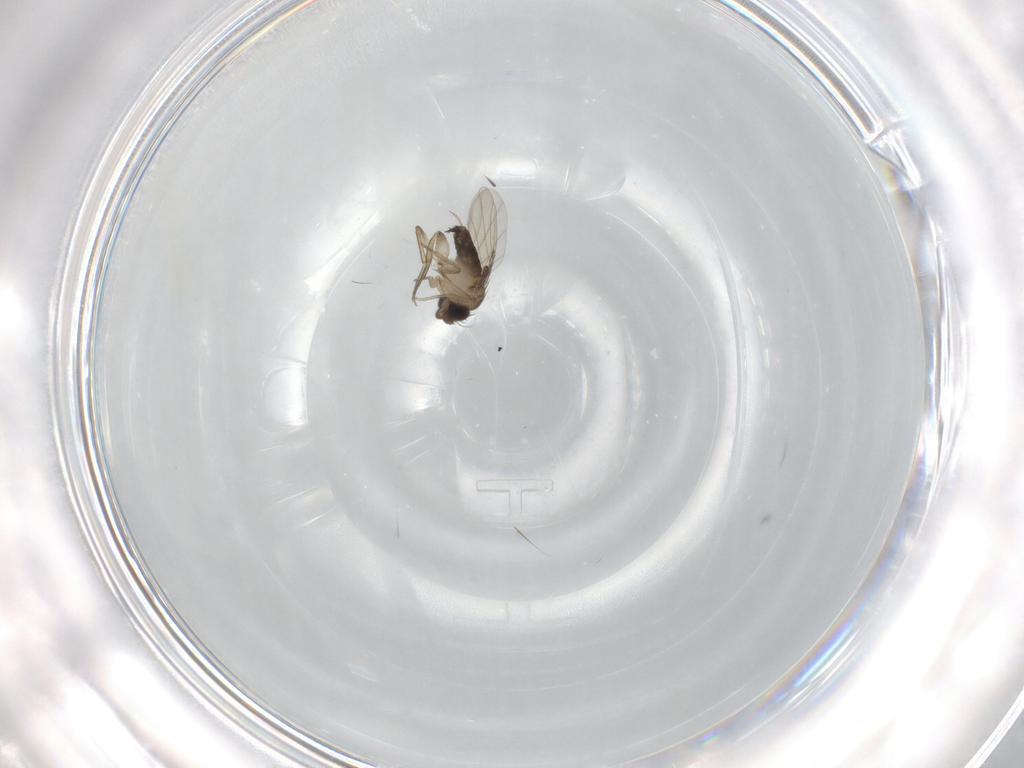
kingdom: Animalia
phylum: Arthropoda
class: Insecta
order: Diptera
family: Phoridae
